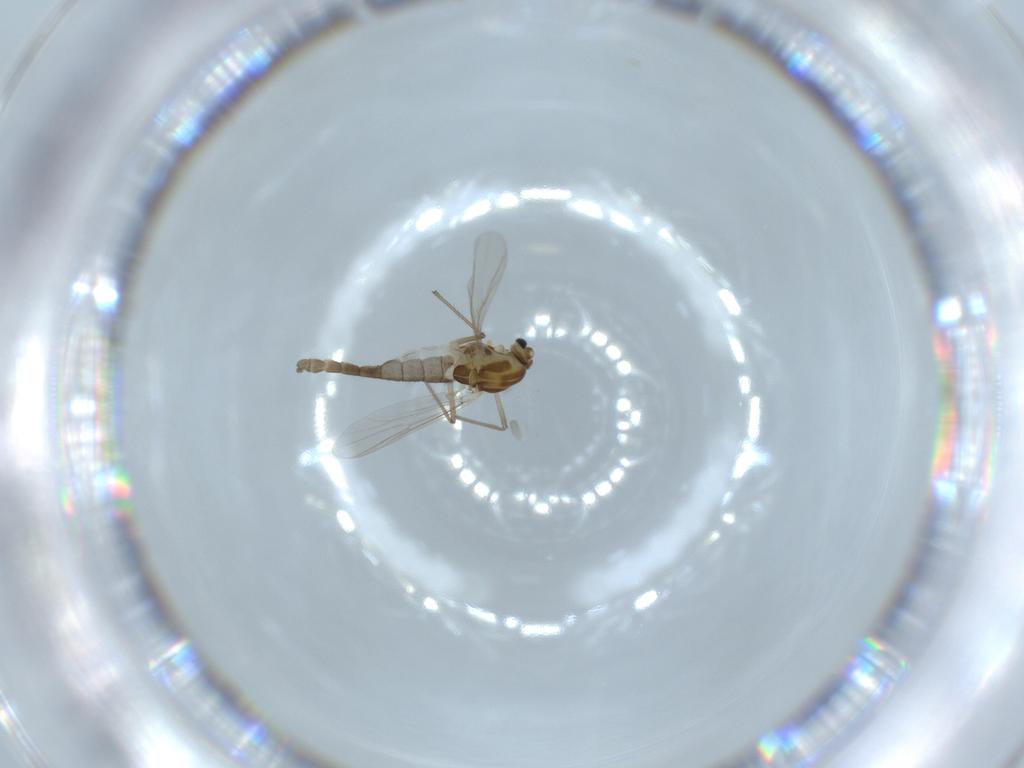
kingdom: Animalia
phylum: Arthropoda
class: Insecta
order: Diptera
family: Chironomidae
